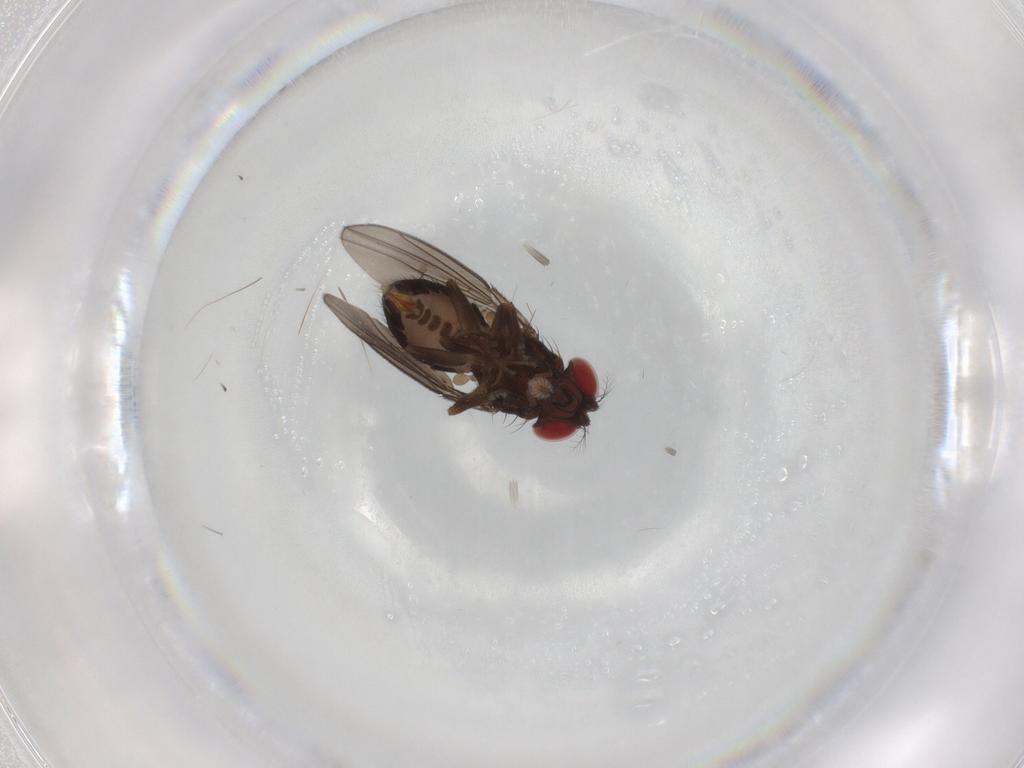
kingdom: Animalia
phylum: Arthropoda
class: Insecta
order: Diptera
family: Drosophilidae
